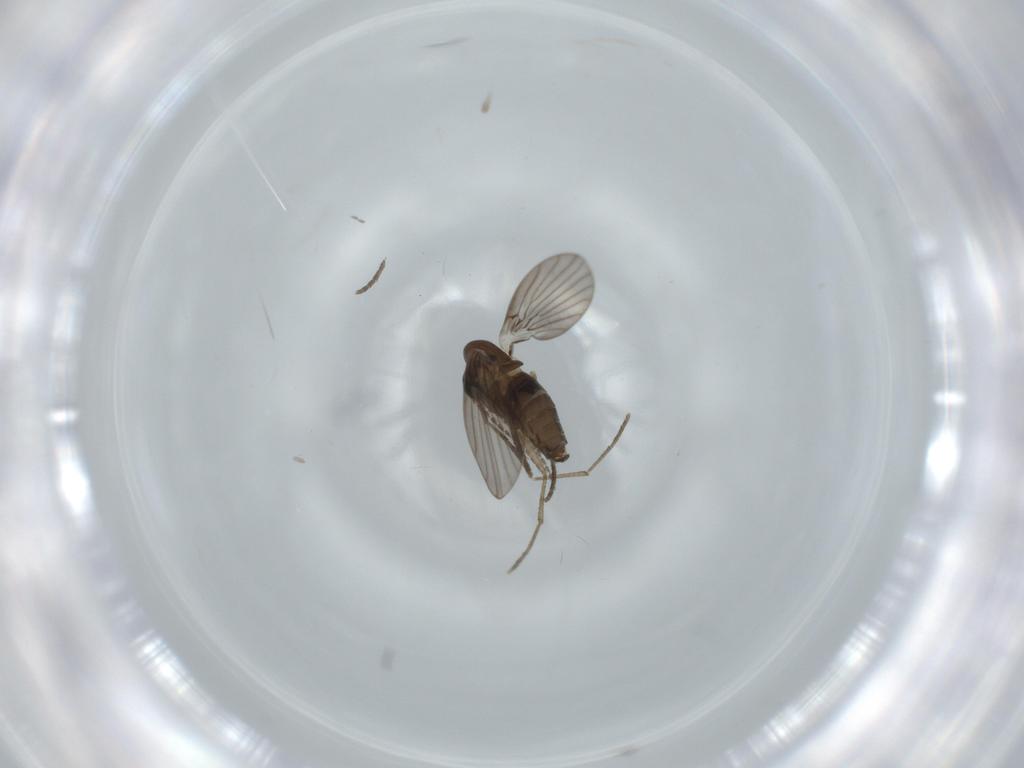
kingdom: Animalia
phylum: Arthropoda
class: Insecta
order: Diptera
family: Psychodidae
